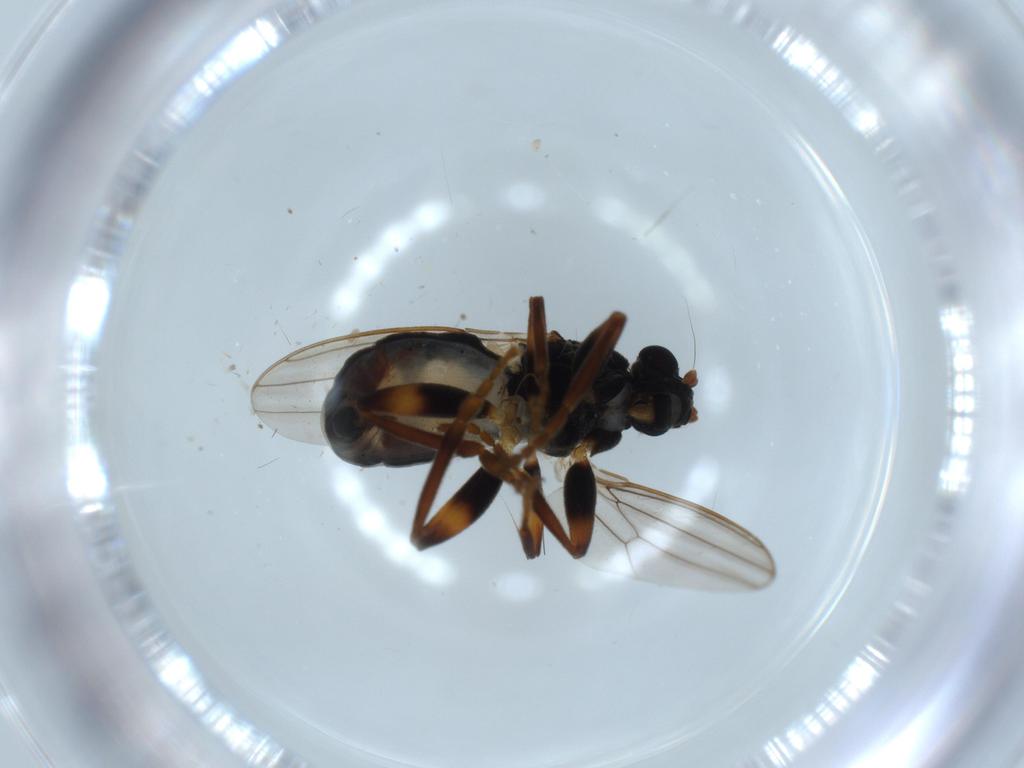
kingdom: Animalia
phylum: Arthropoda
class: Insecta
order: Diptera
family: Sphaeroceridae
